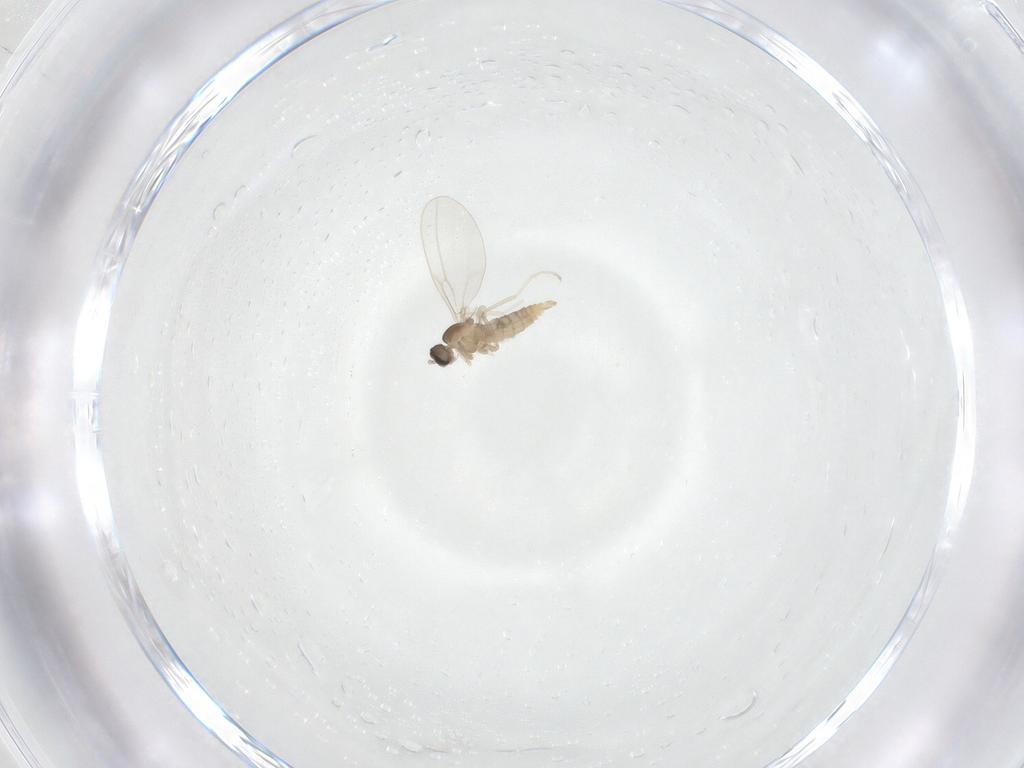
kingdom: Animalia
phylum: Arthropoda
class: Insecta
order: Diptera
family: Cecidomyiidae
